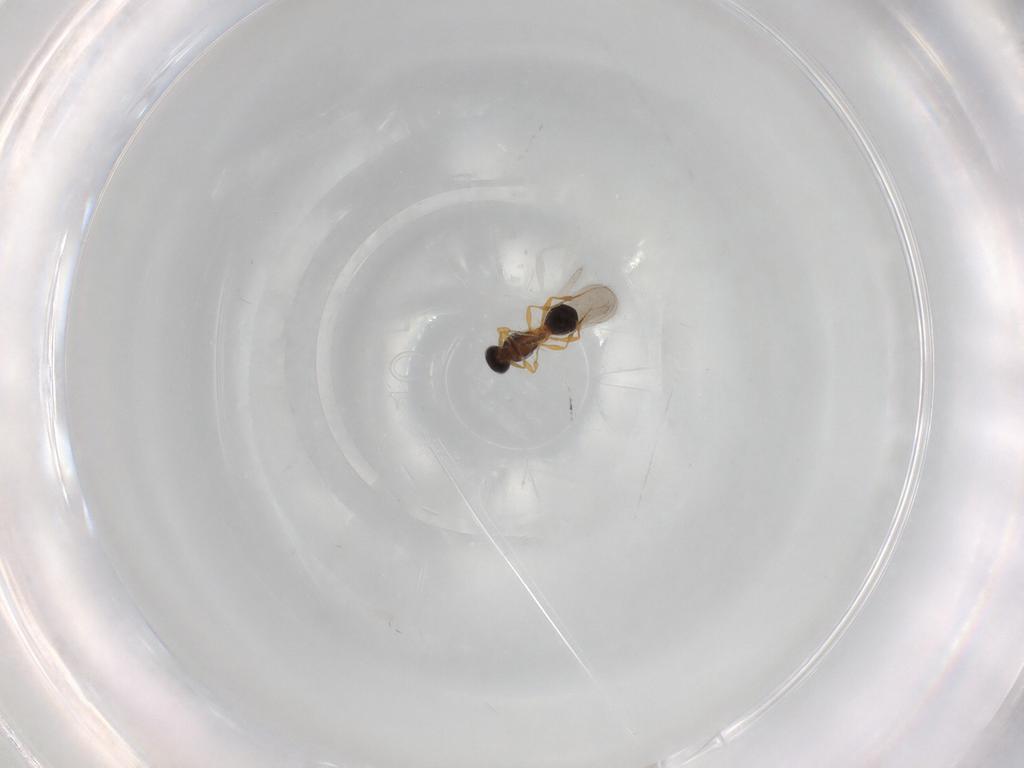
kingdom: Animalia
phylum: Arthropoda
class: Insecta
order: Hymenoptera
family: Platygastridae
